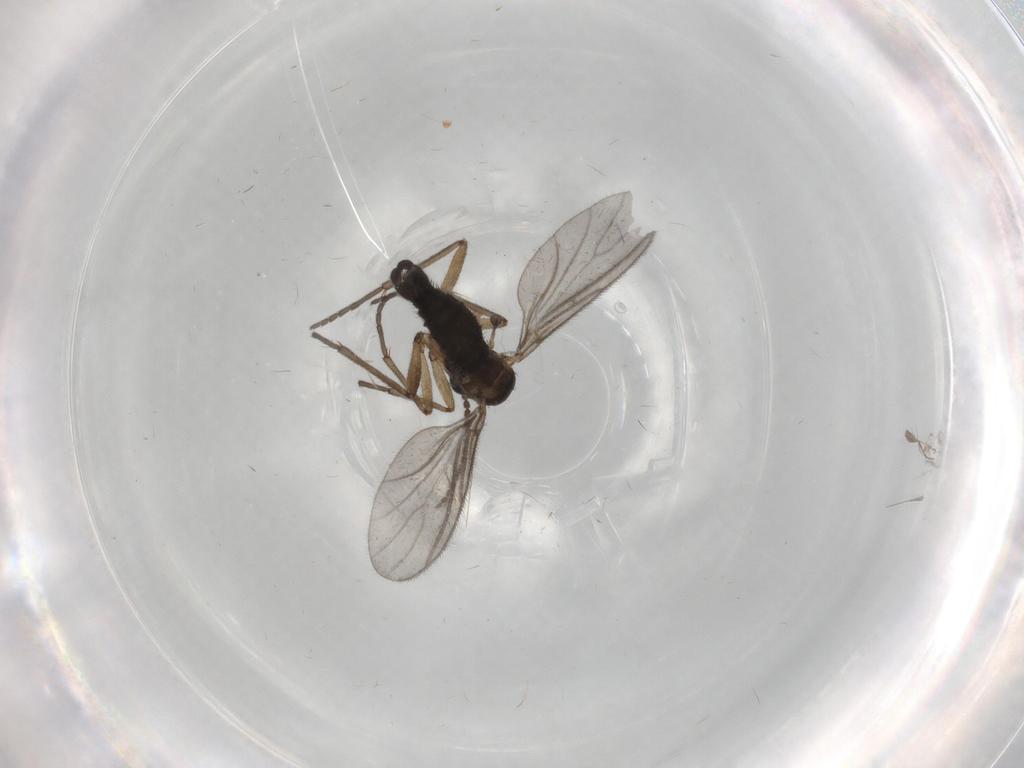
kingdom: Animalia
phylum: Arthropoda
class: Insecta
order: Diptera
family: Sciaridae
